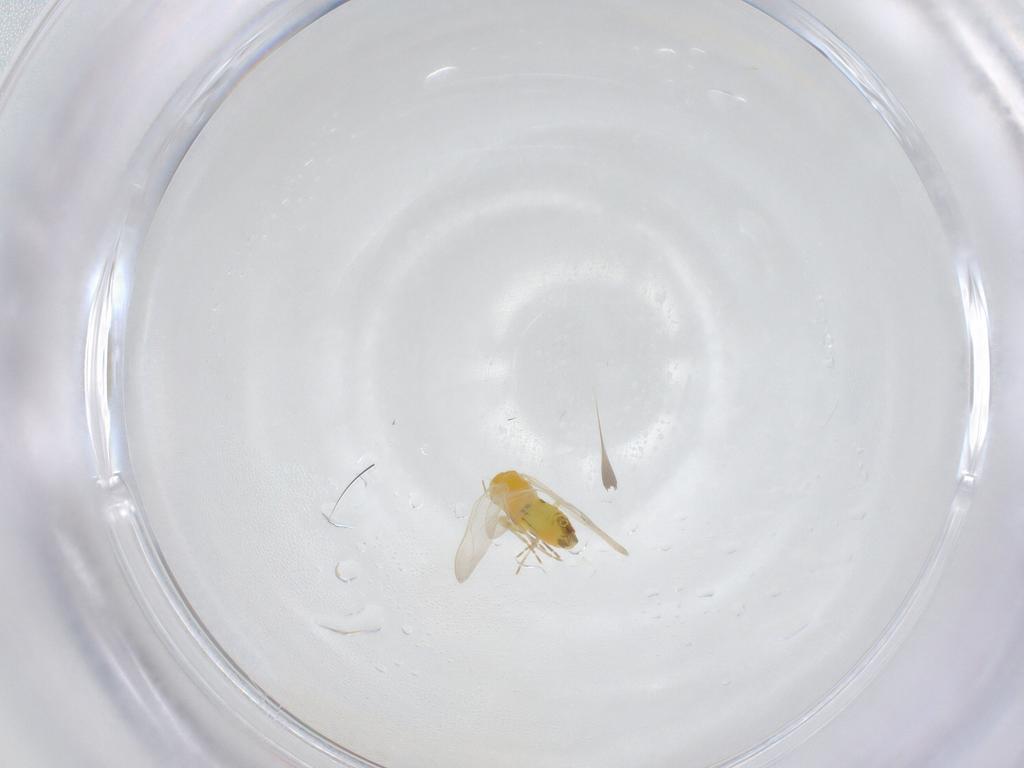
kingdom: Animalia
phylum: Arthropoda
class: Insecta
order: Hemiptera
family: Aleyrodidae
